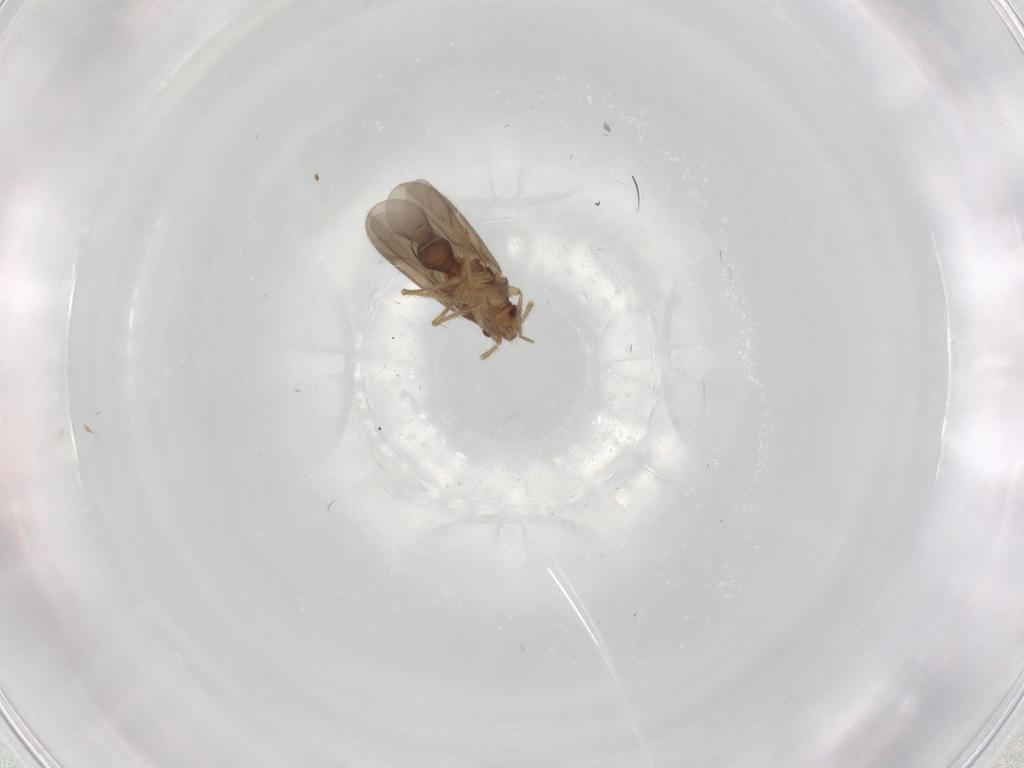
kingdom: Animalia
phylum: Arthropoda
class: Insecta
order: Hemiptera
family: Ceratocombidae
